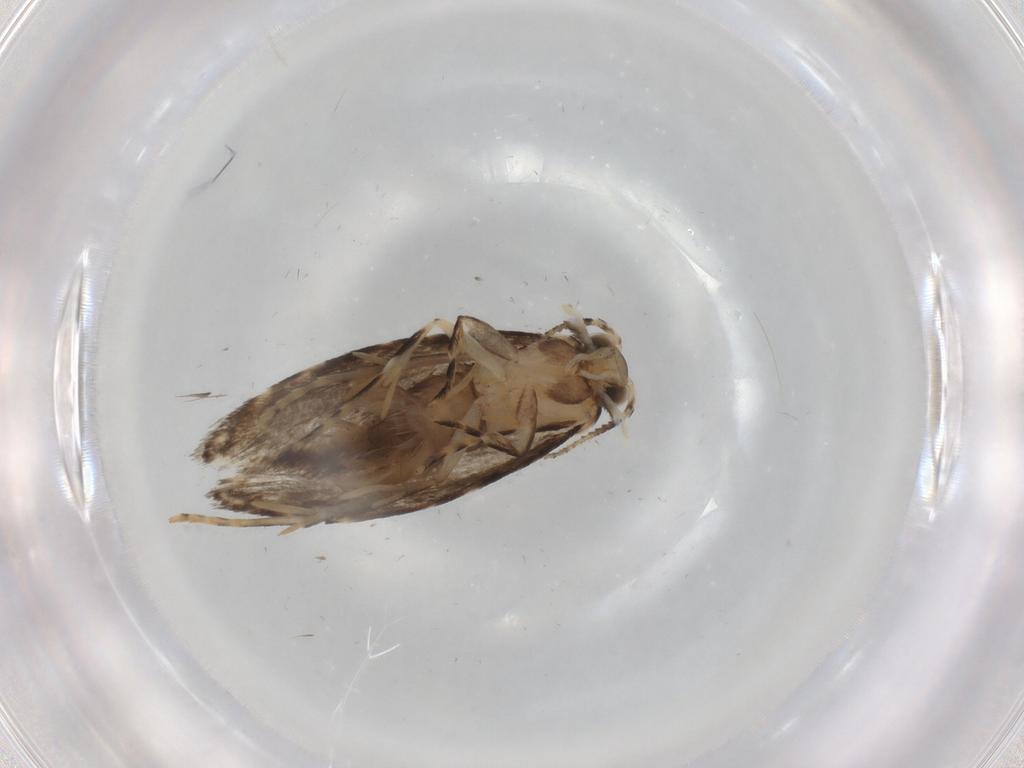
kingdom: Animalia
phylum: Arthropoda
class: Insecta
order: Lepidoptera
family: Tineidae
